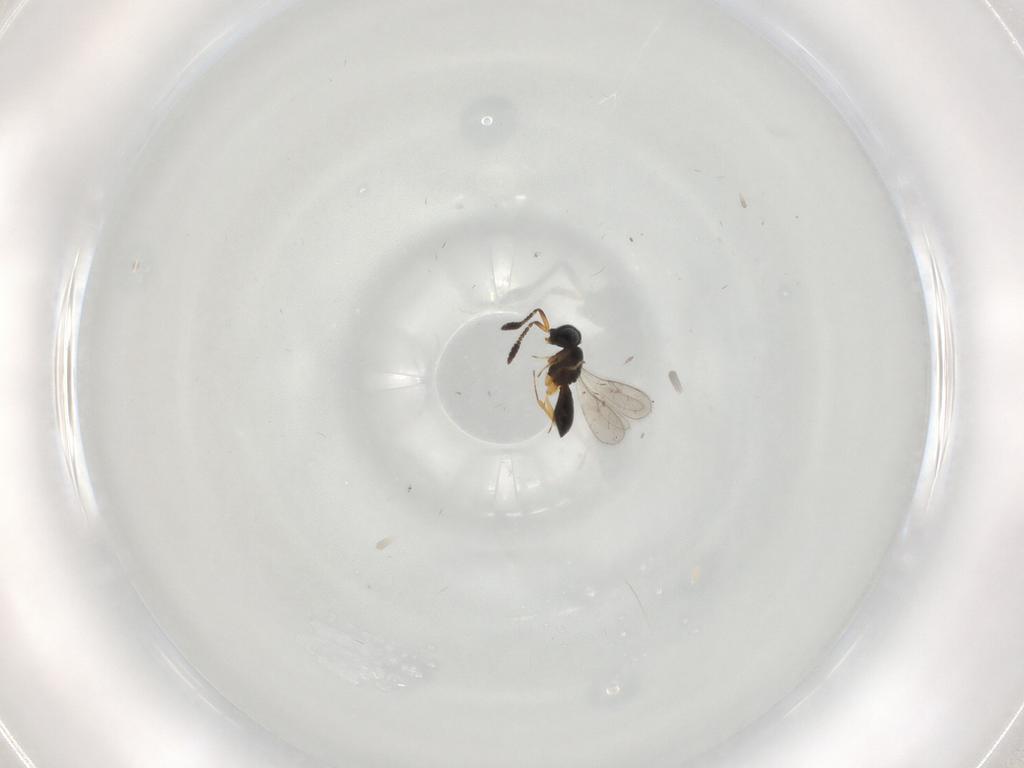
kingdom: Animalia
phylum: Arthropoda
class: Insecta
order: Hymenoptera
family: Scelionidae
